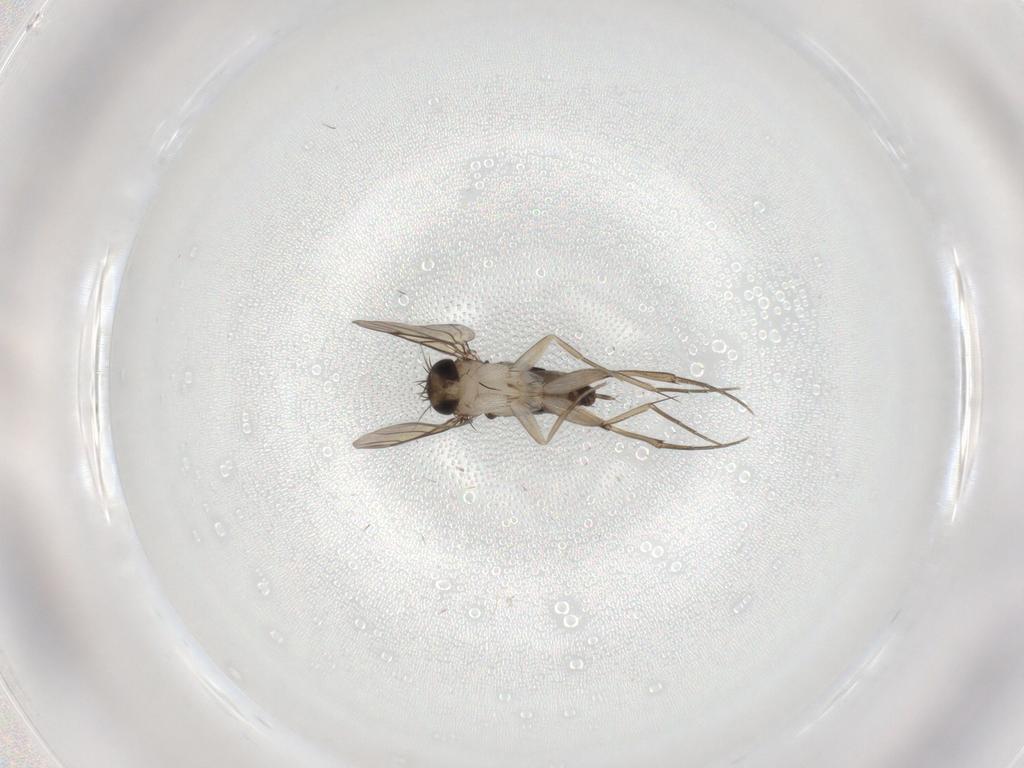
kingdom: Animalia
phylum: Arthropoda
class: Insecta
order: Diptera
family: Phoridae
